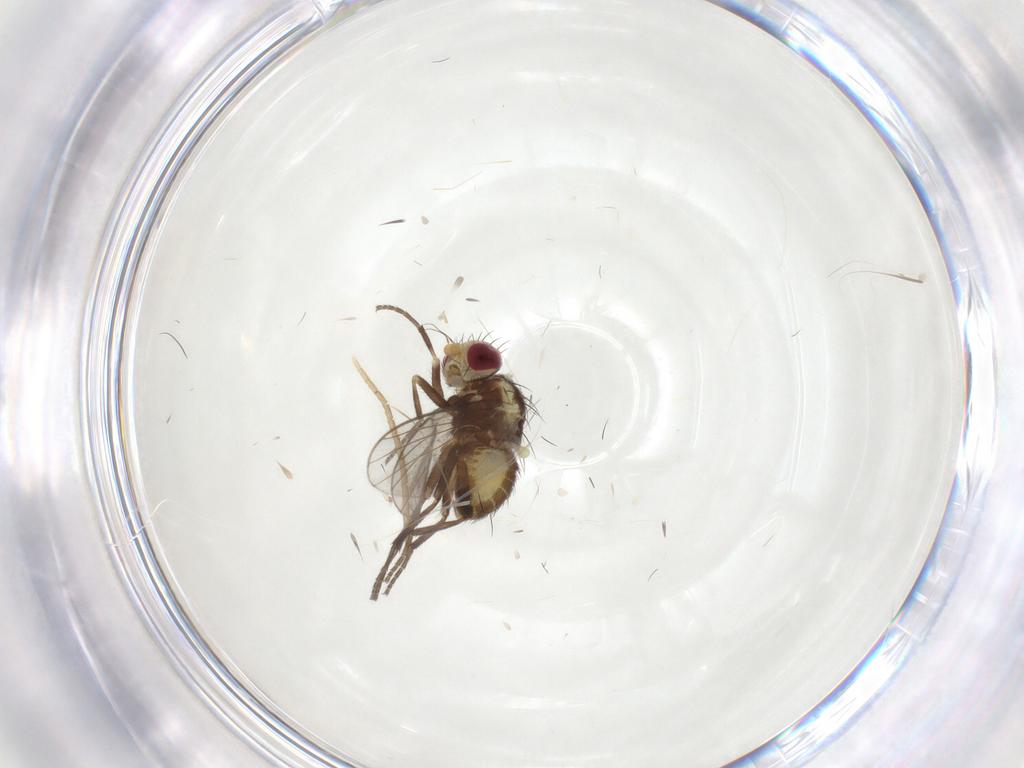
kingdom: Animalia
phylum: Arthropoda
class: Insecta
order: Diptera
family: Agromyzidae
